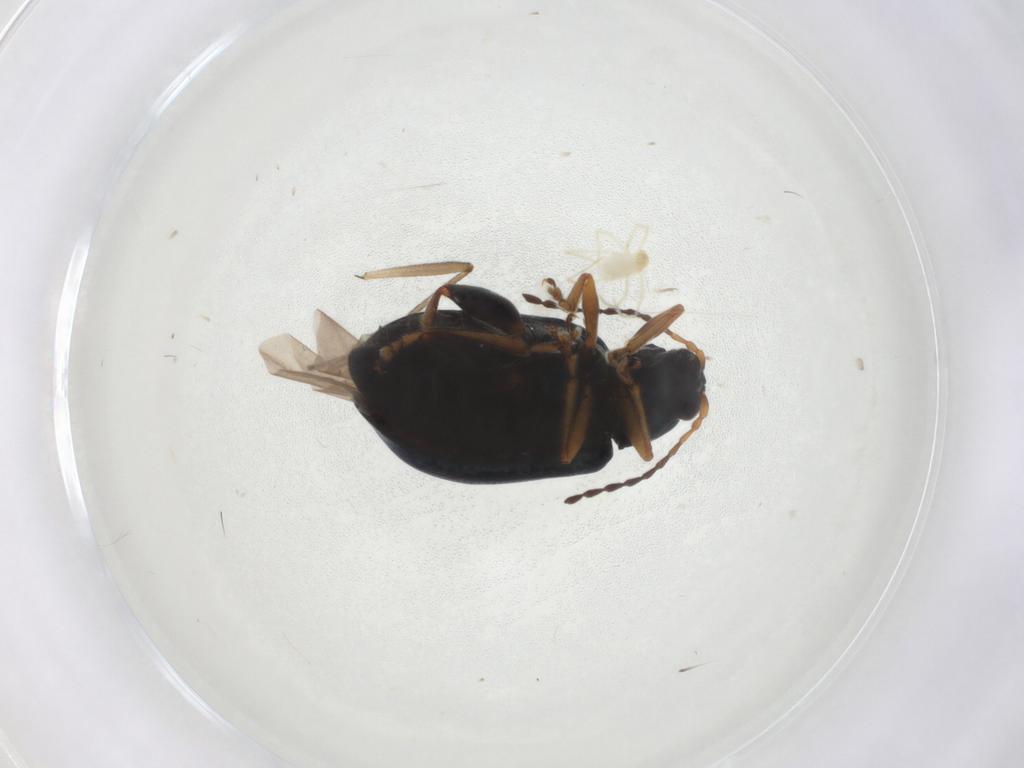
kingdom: Animalia
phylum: Arthropoda
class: Insecta
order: Coleoptera
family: Chrysomelidae
